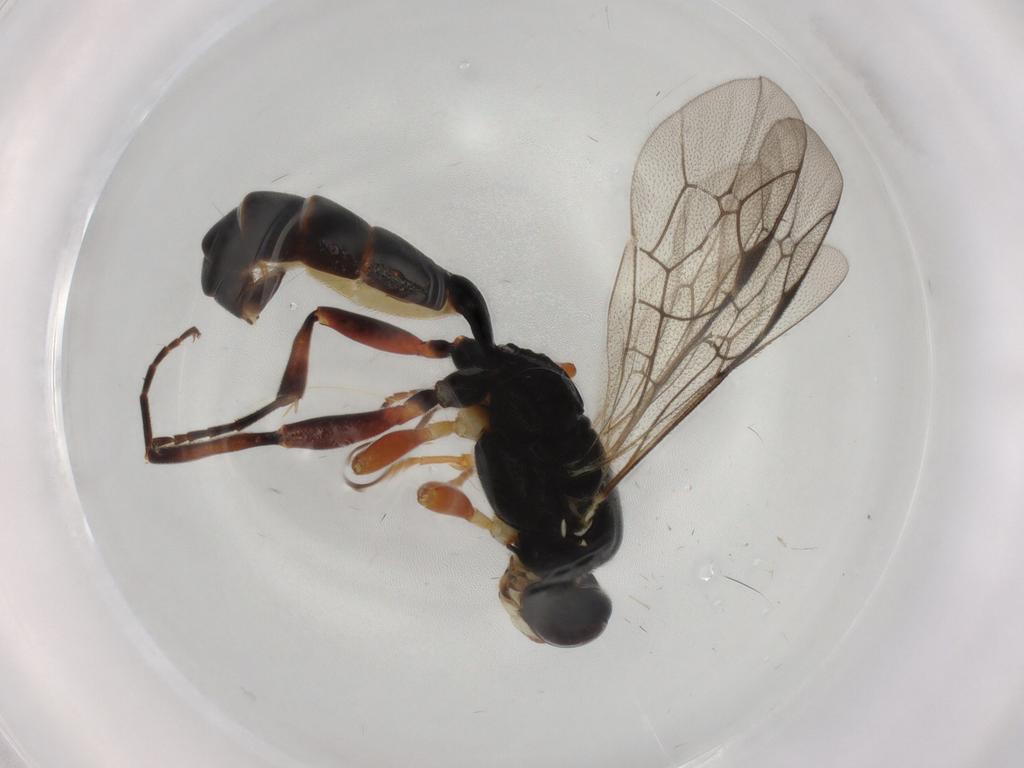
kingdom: Animalia
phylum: Arthropoda
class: Insecta
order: Hymenoptera
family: Ichneumonidae
